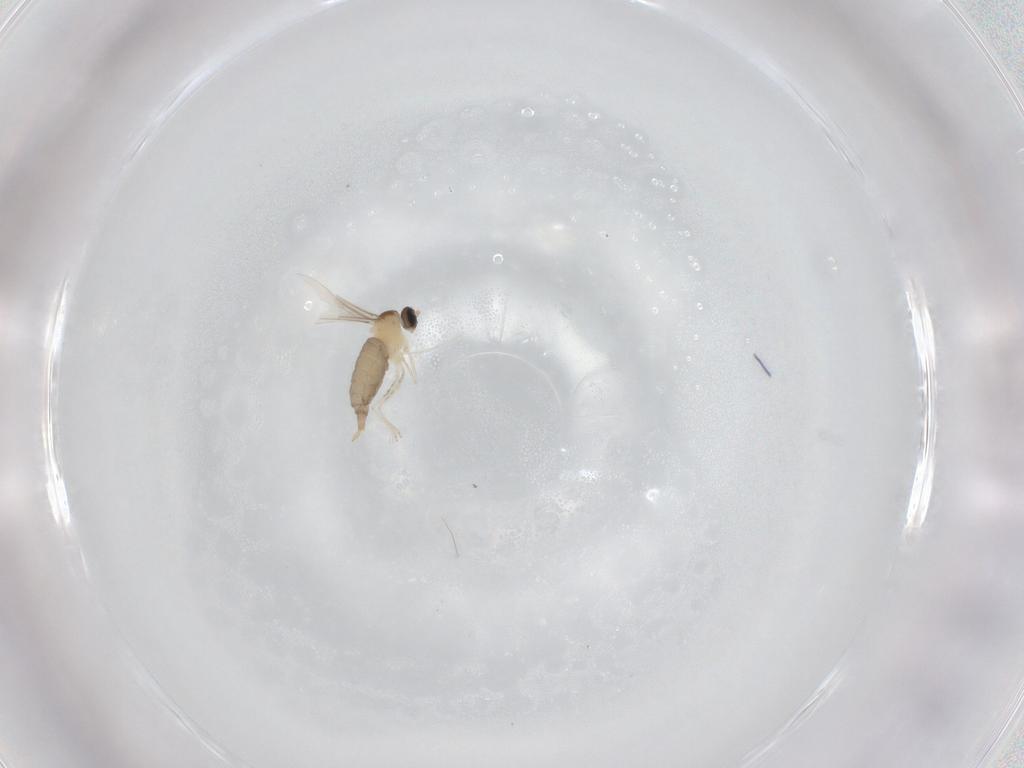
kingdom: Animalia
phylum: Arthropoda
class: Insecta
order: Diptera
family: Cecidomyiidae
